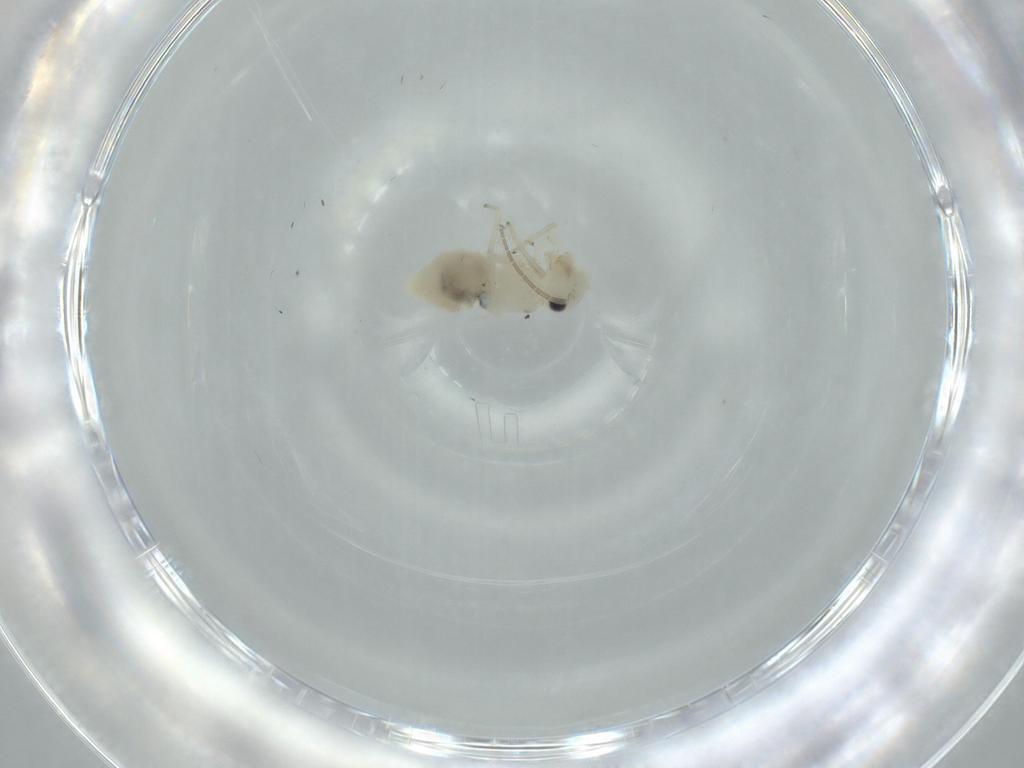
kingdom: Animalia
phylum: Arthropoda
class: Insecta
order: Psocodea
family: Caeciliusidae
